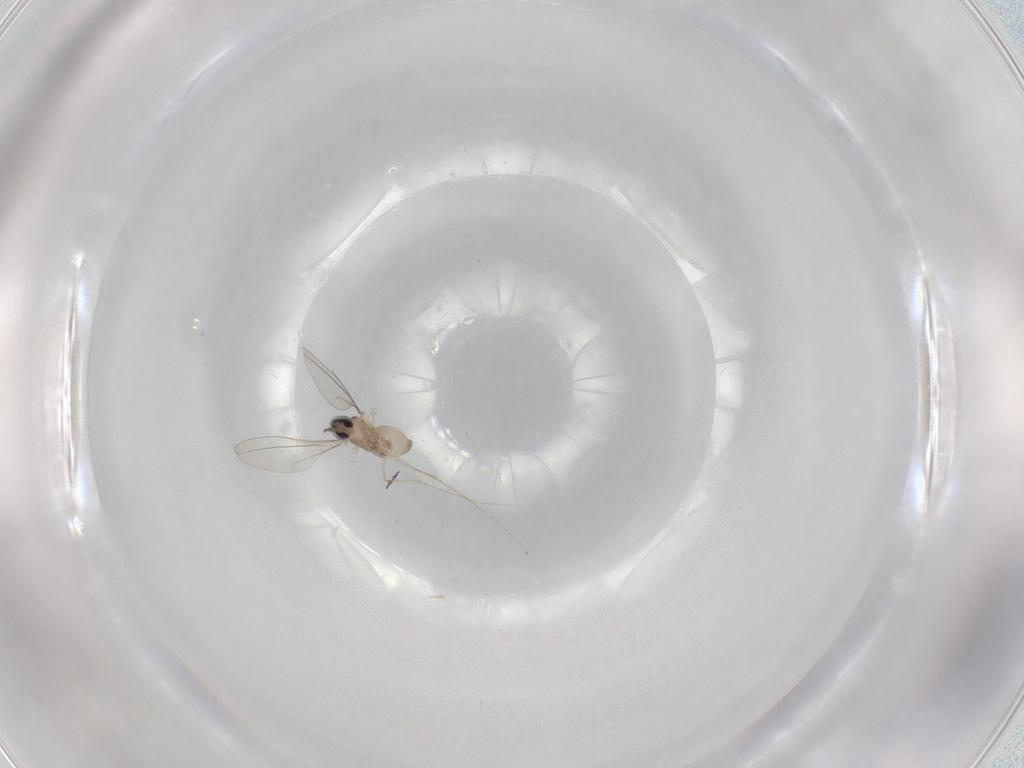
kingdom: Animalia
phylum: Arthropoda
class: Insecta
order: Diptera
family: Cecidomyiidae
